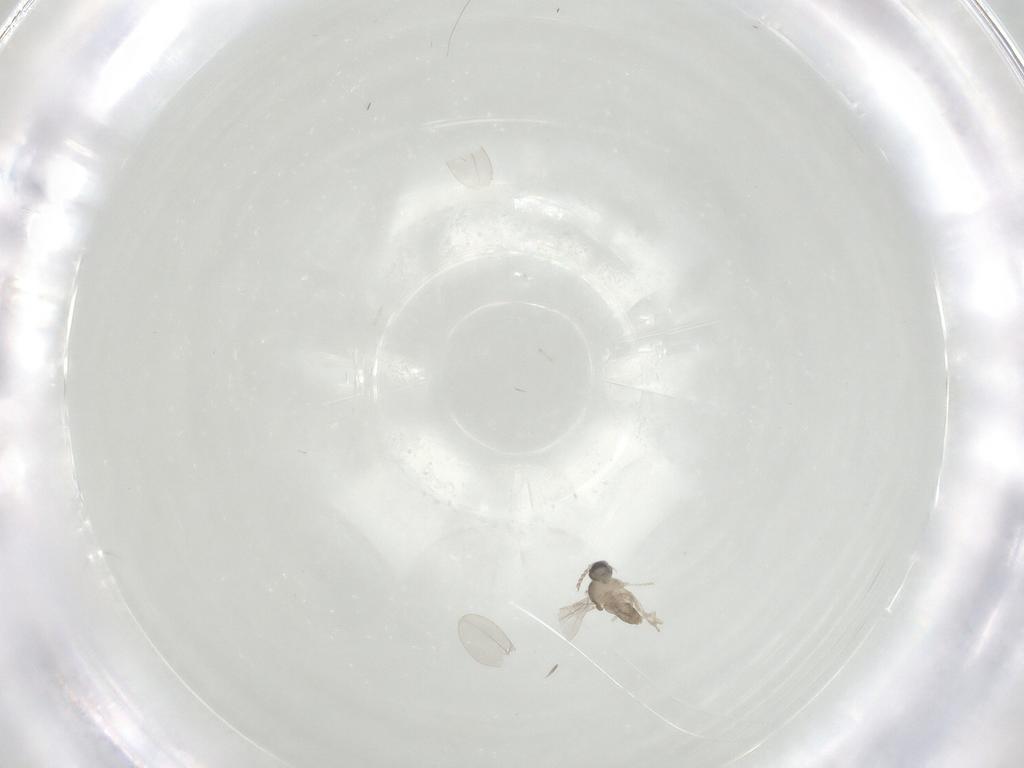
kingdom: Animalia
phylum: Arthropoda
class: Insecta
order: Diptera
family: Cecidomyiidae
